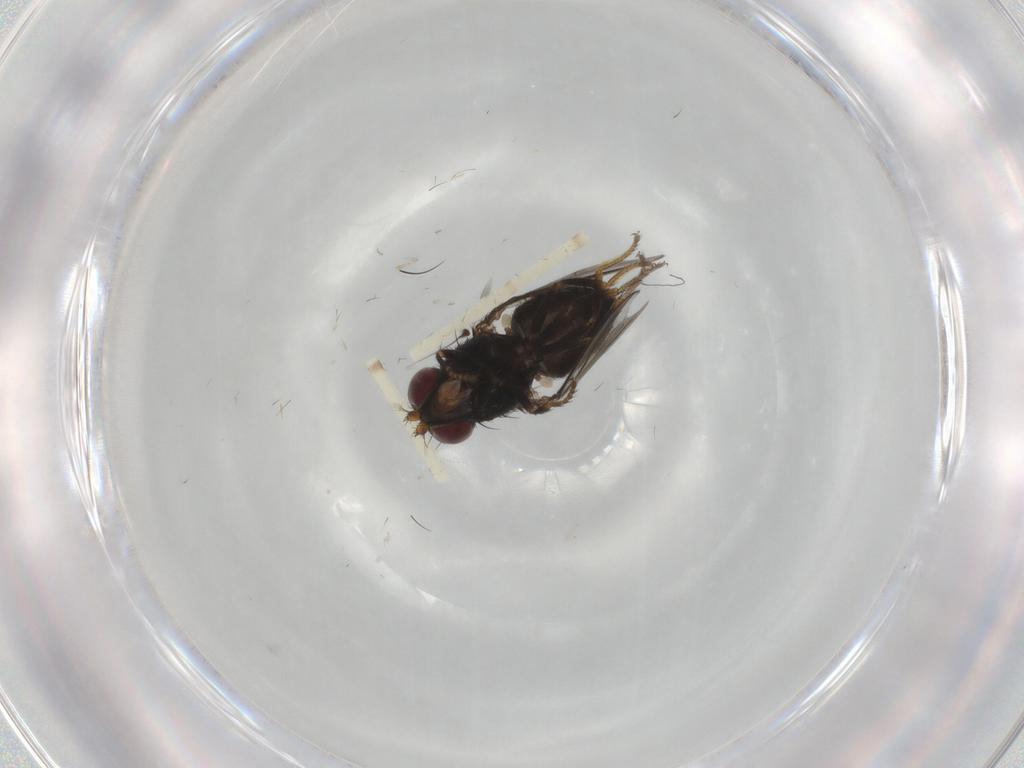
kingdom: Animalia
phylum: Arthropoda
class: Insecta
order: Diptera
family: Dolichopodidae
